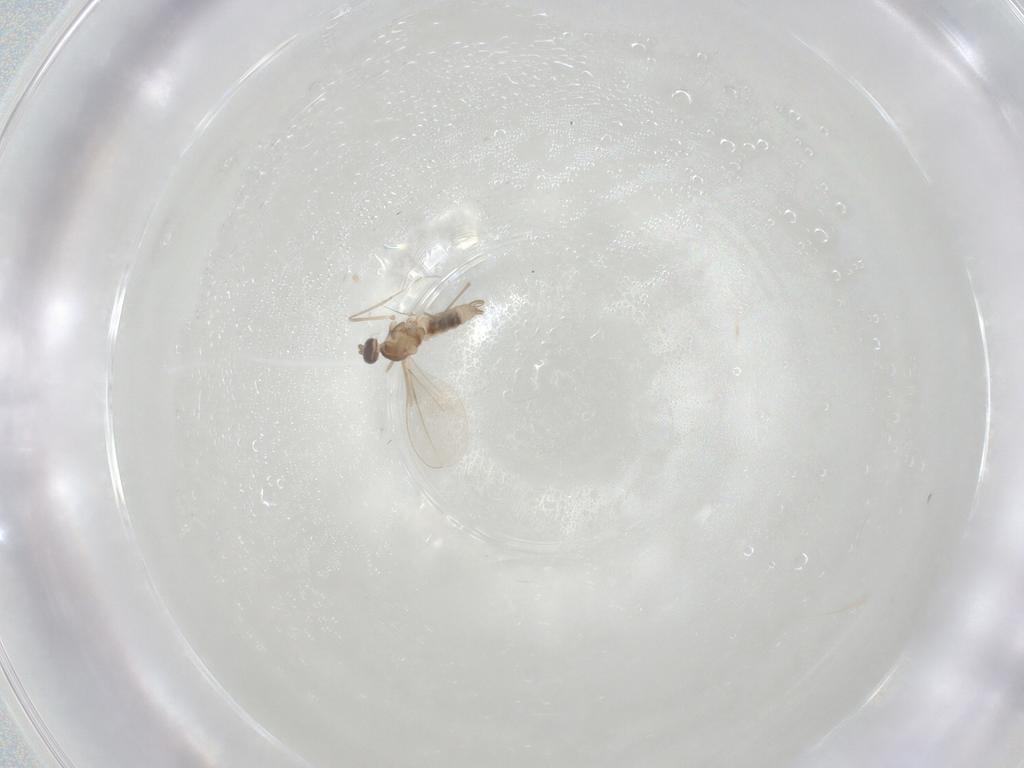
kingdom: Animalia
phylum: Arthropoda
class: Insecta
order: Diptera
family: Cecidomyiidae
